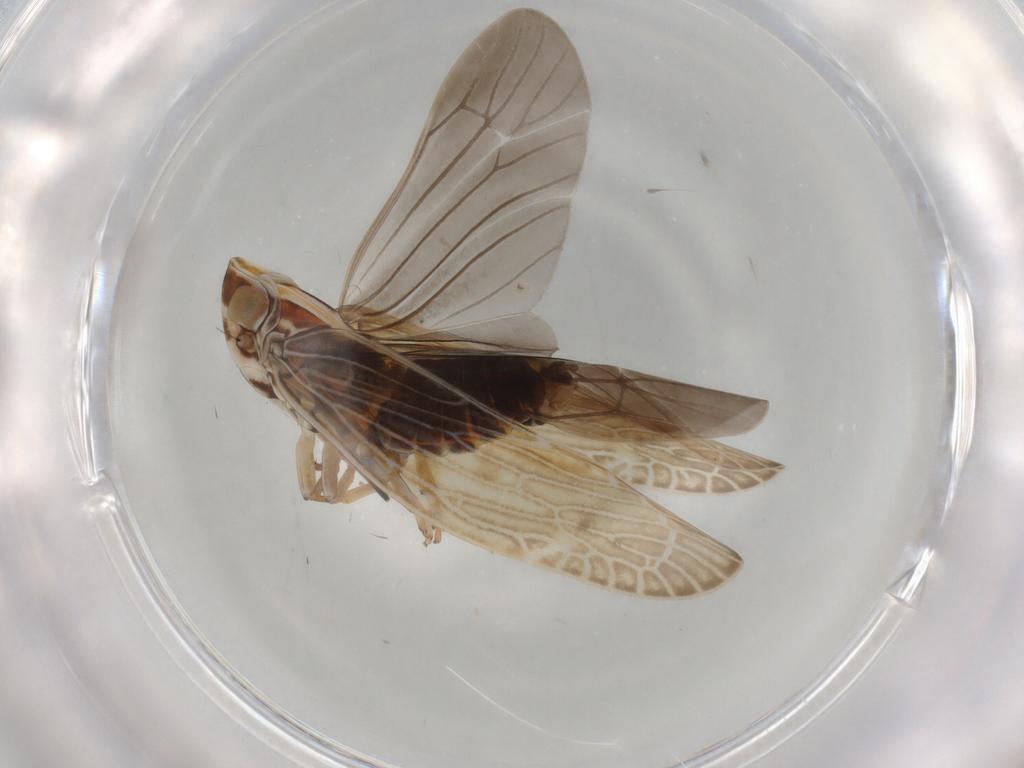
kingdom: Animalia
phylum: Arthropoda
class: Insecta
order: Hemiptera
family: Achilidae
